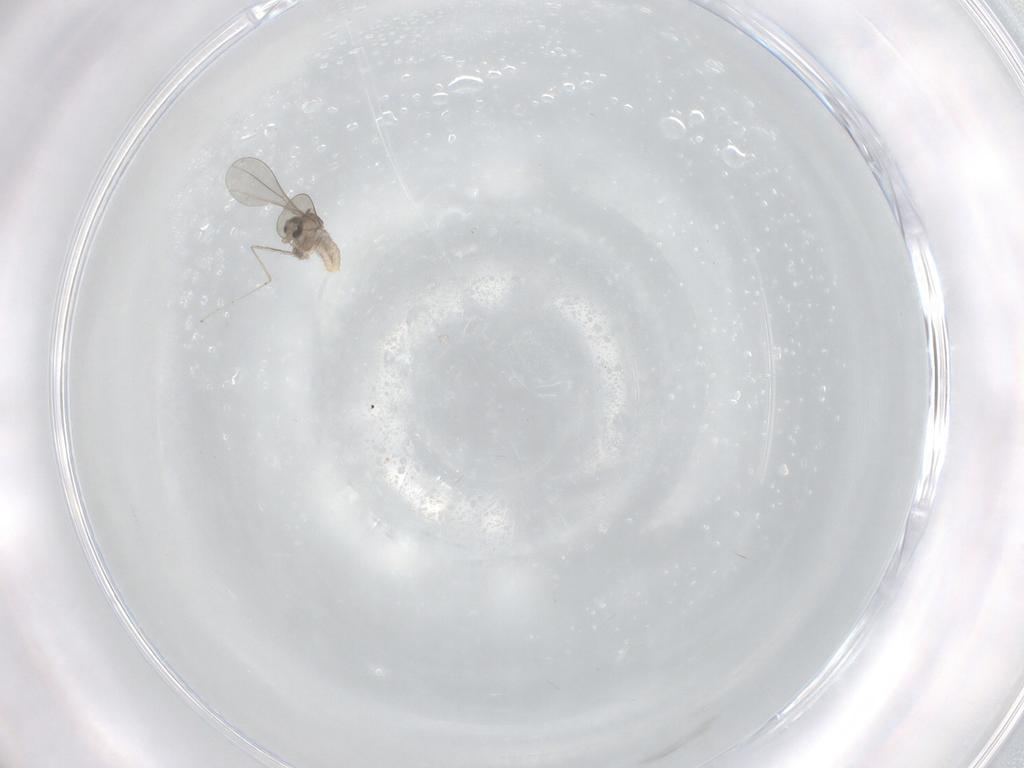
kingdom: Animalia
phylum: Arthropoda
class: Insecta
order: Diptera
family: Cecidomyiidae
